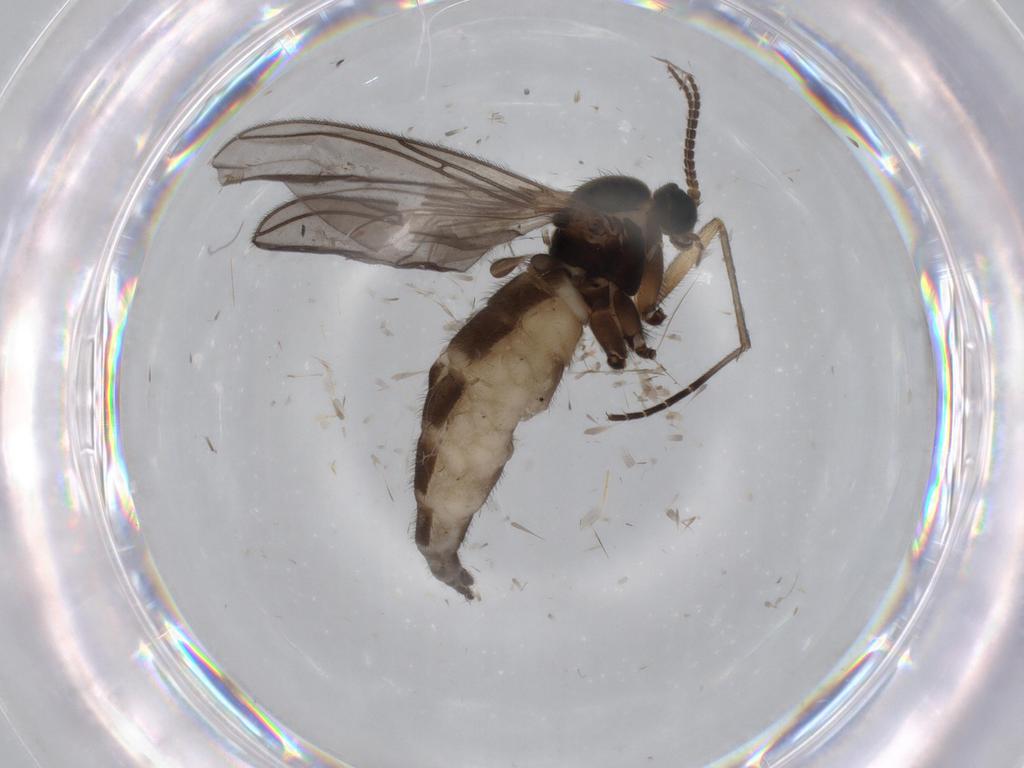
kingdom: Animalia
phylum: Arthropoda
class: Insecta
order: Diptera
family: Sciaridae
